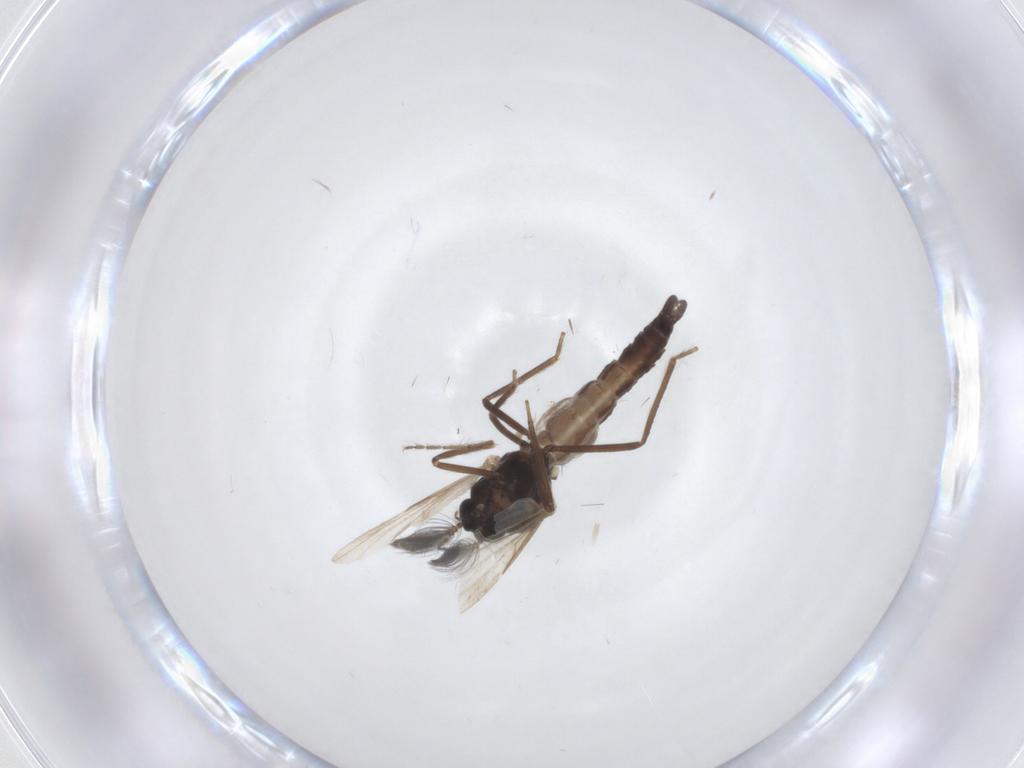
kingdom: Animalia
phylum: Arthropoda
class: Insecta
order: Diptera
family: Ceratopogonidae
